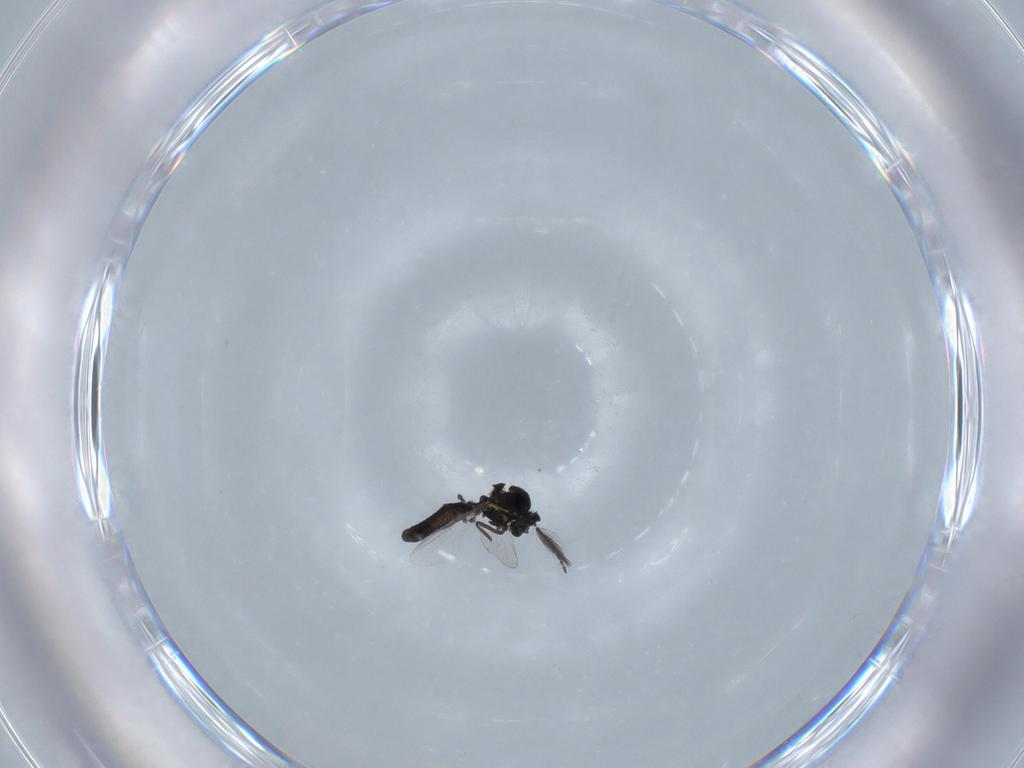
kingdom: Animalia
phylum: Arthropoda
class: Insecta
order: Diptera
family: Ceratopogonidae
